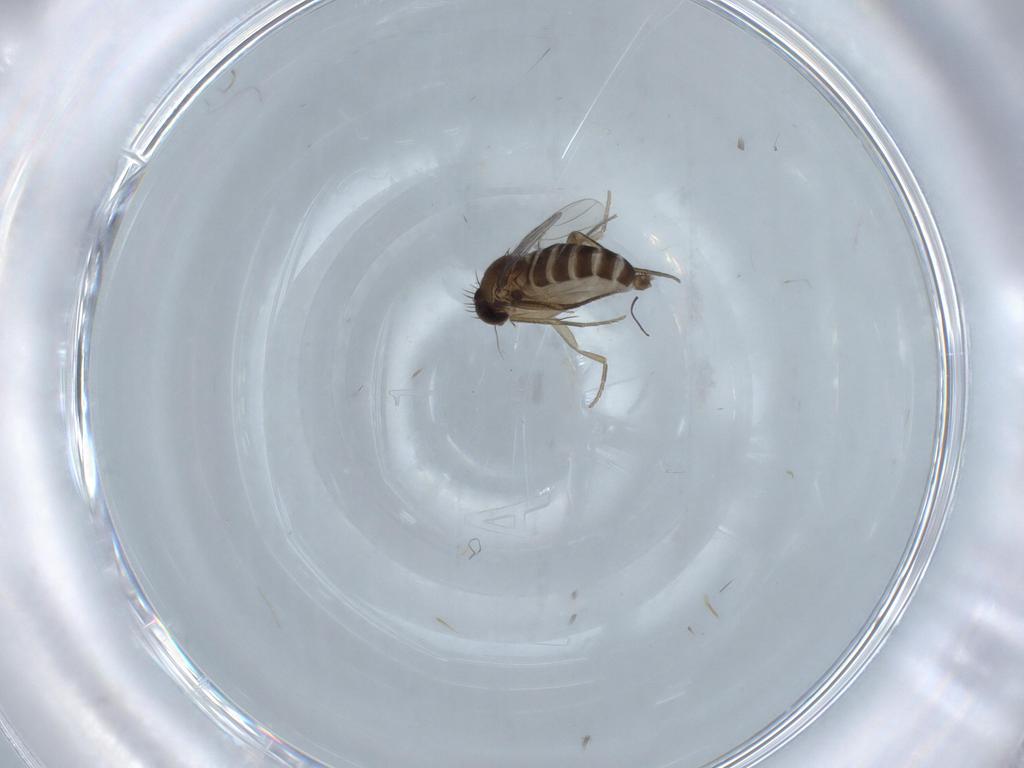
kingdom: Animalia
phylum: Arthropoda
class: Insecta
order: Diptera
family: Phoridae
